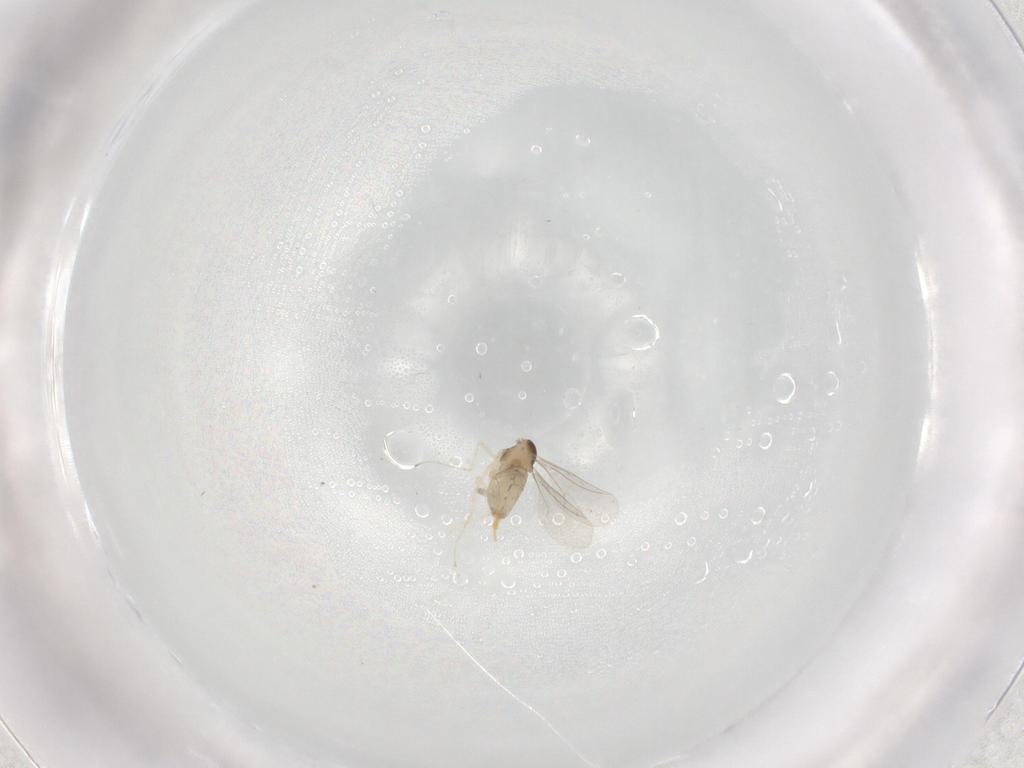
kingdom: Animalia
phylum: Arthropoda
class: Insecta
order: Diptera
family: Cecidomyiidae
